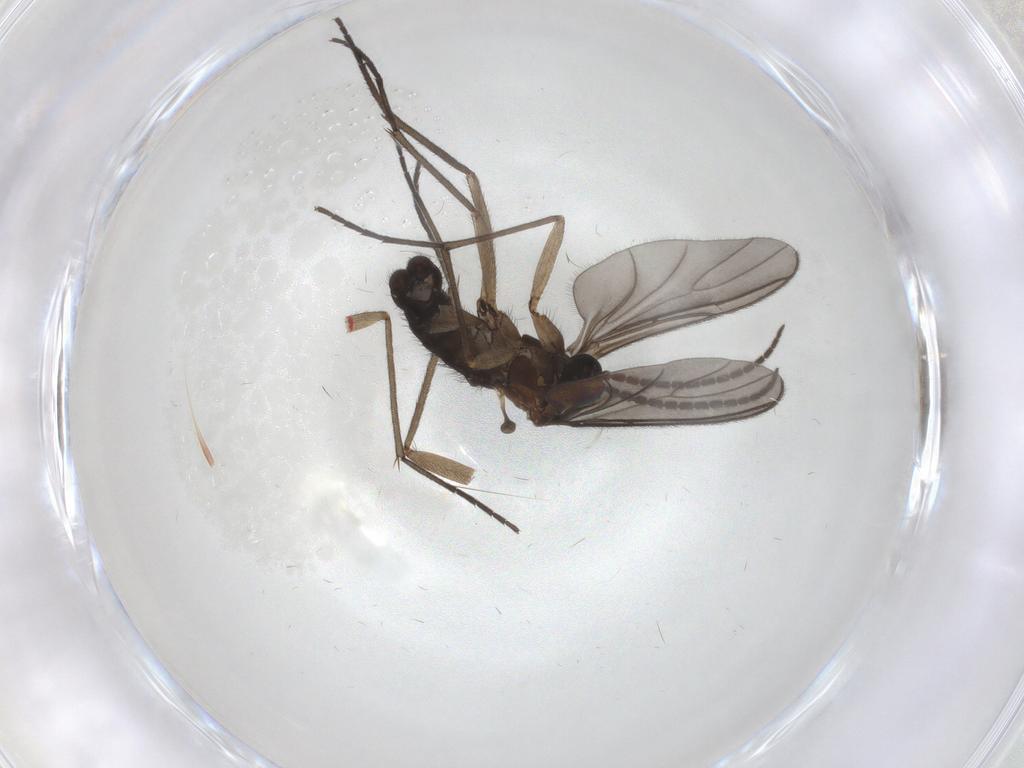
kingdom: Animalia
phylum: Arthropoda
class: Insecta
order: Diptera
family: Sciaridae
